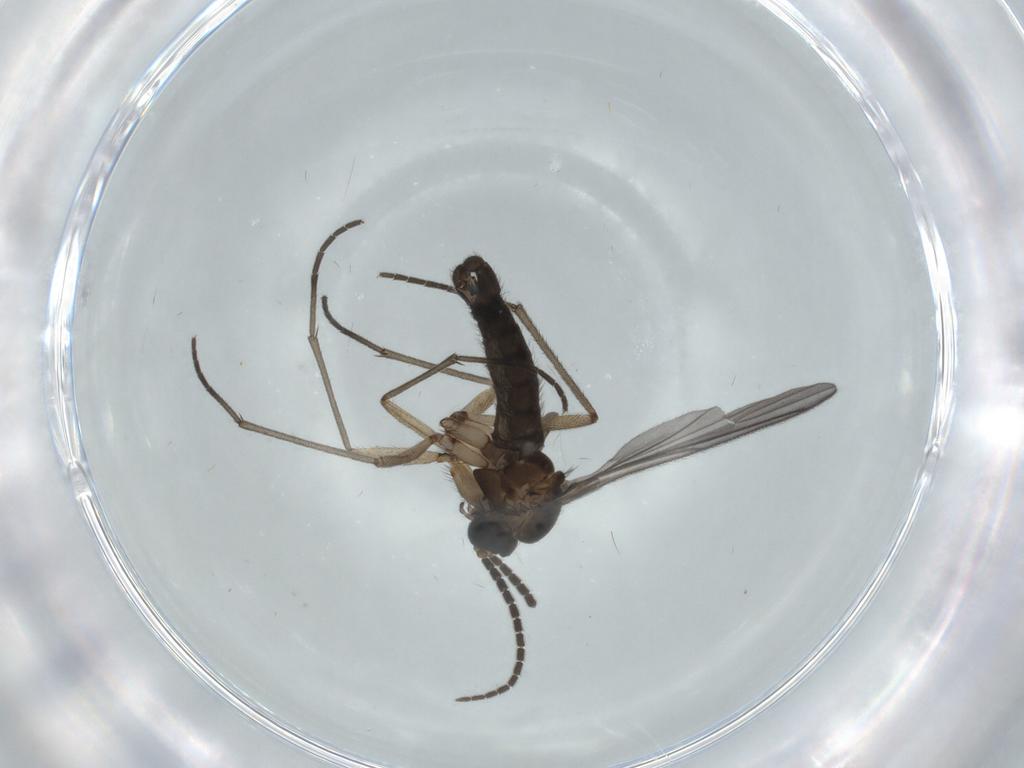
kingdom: Animalia
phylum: Arthropoda
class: Insecta
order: Diptera
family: Sciaridae
